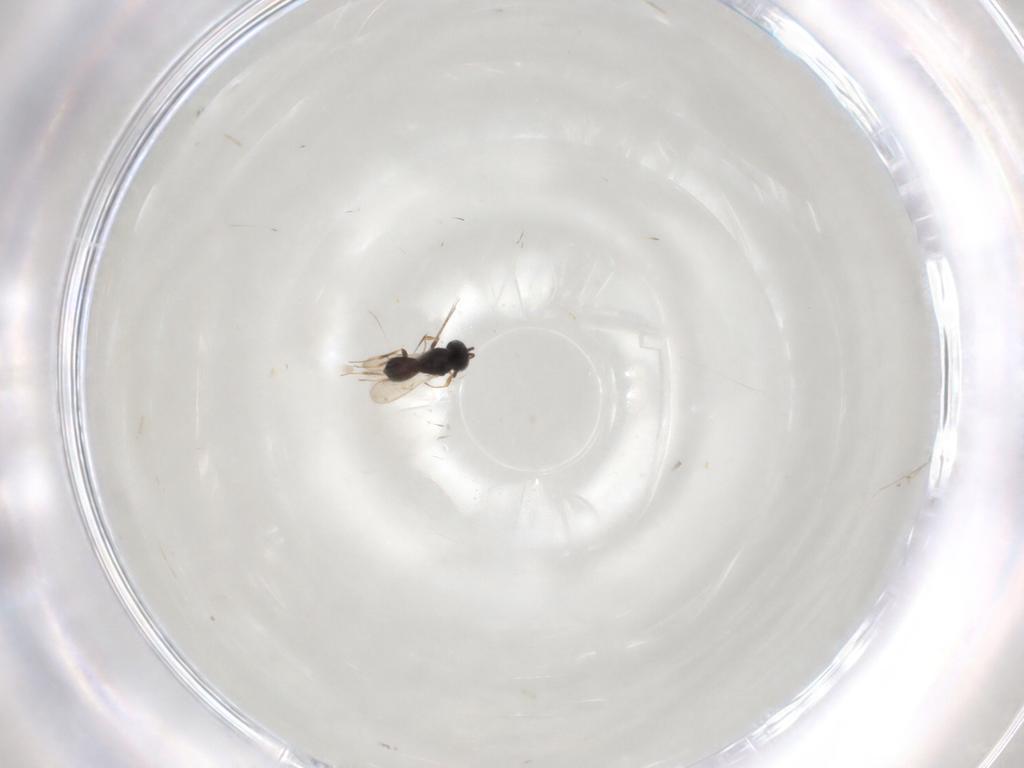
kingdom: Animalia
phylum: Arthropoda
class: Insecta
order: Hymenoptera
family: Scelionidae
